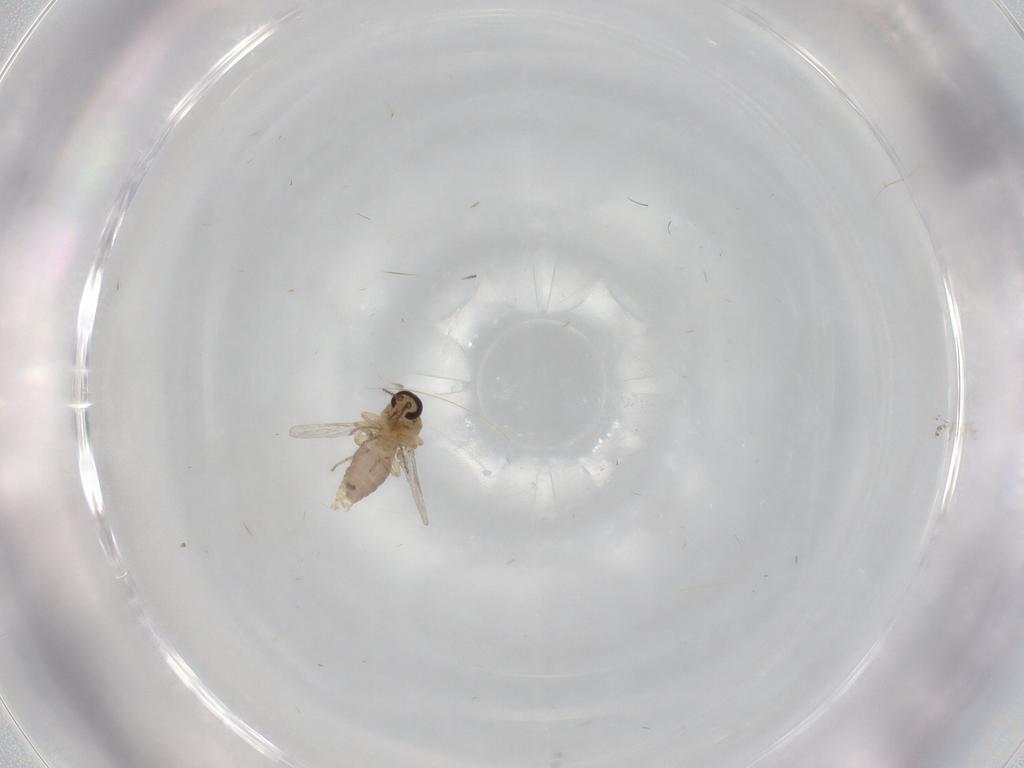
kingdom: Animalia
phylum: Arthropoda
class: Insecta
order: Diptera
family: Ceratopogonidae
